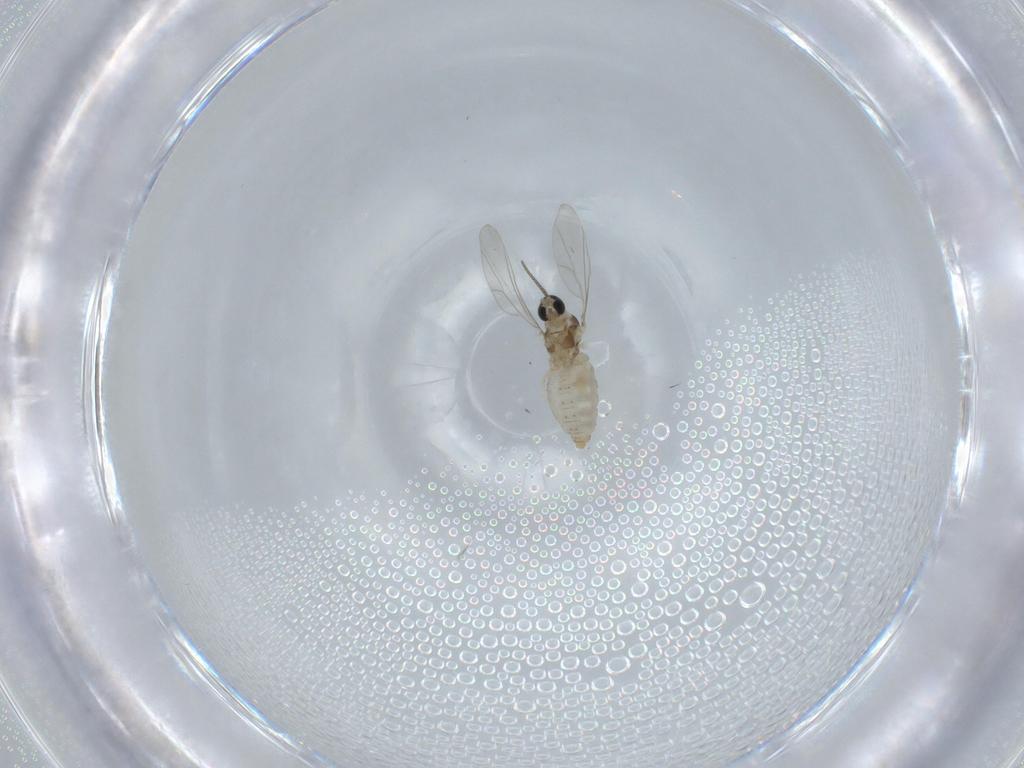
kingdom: Animalia
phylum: Arthropoda
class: Insecta
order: Diptera
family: Cecidomyiidae
